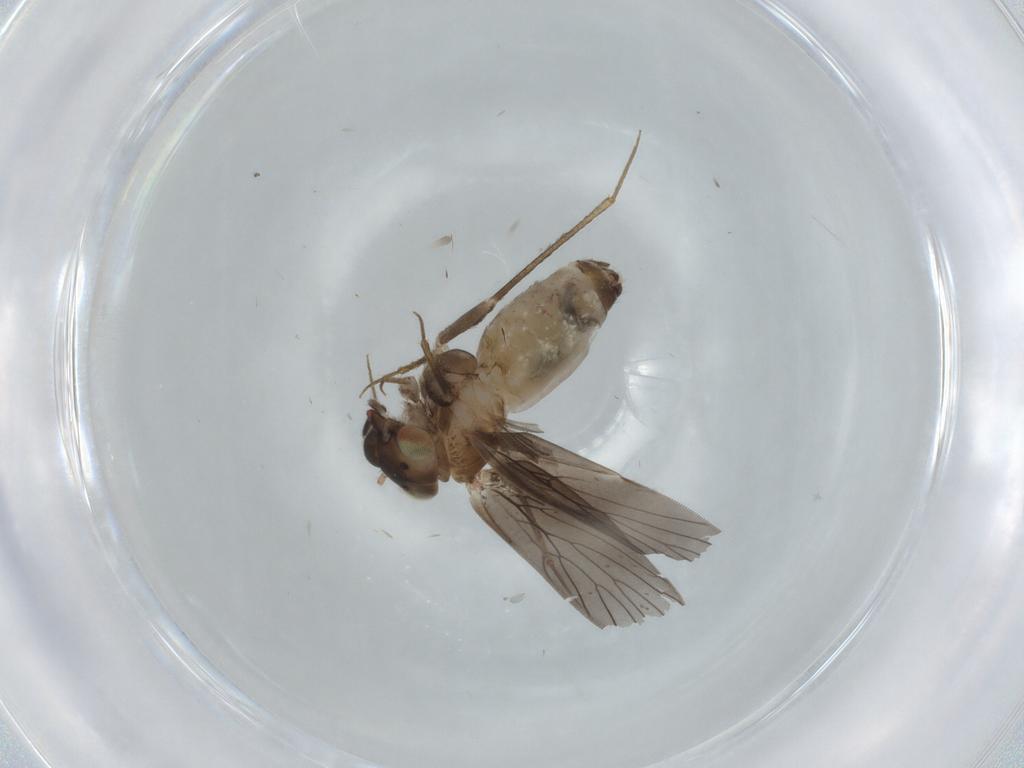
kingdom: Animalia
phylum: Arthropoda
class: Insecta
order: Psocodea
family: Lepidopsocidae
